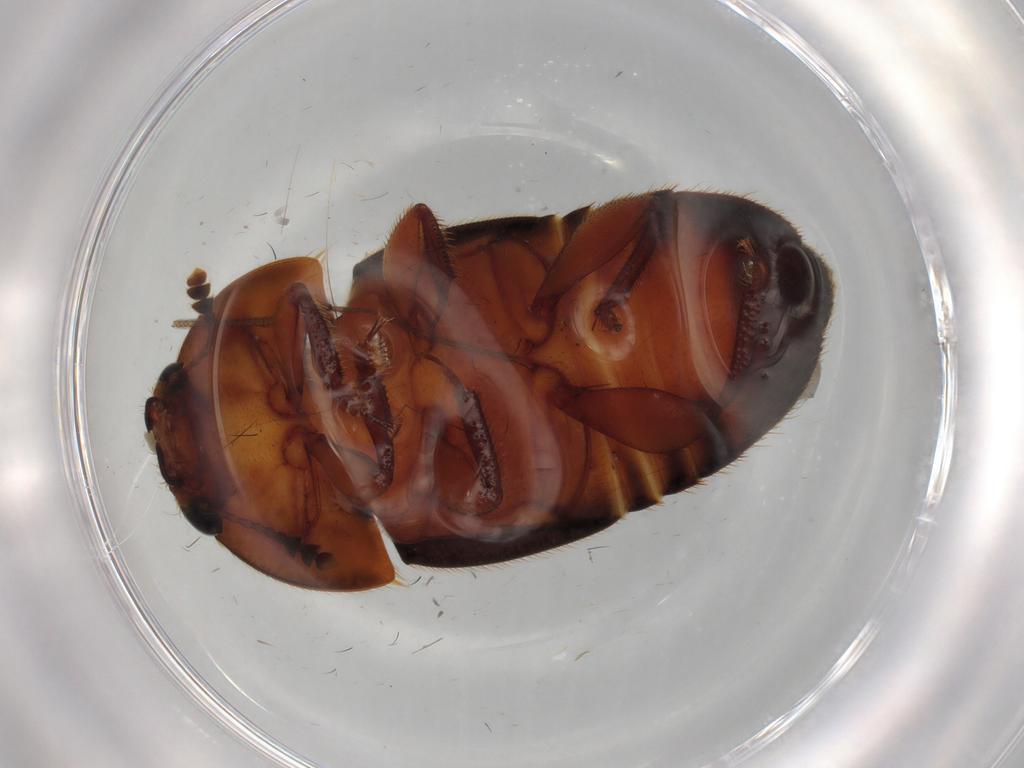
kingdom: Animalia
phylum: Arthropoda
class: Insecta
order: Coleoptera
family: Nitidulidae
